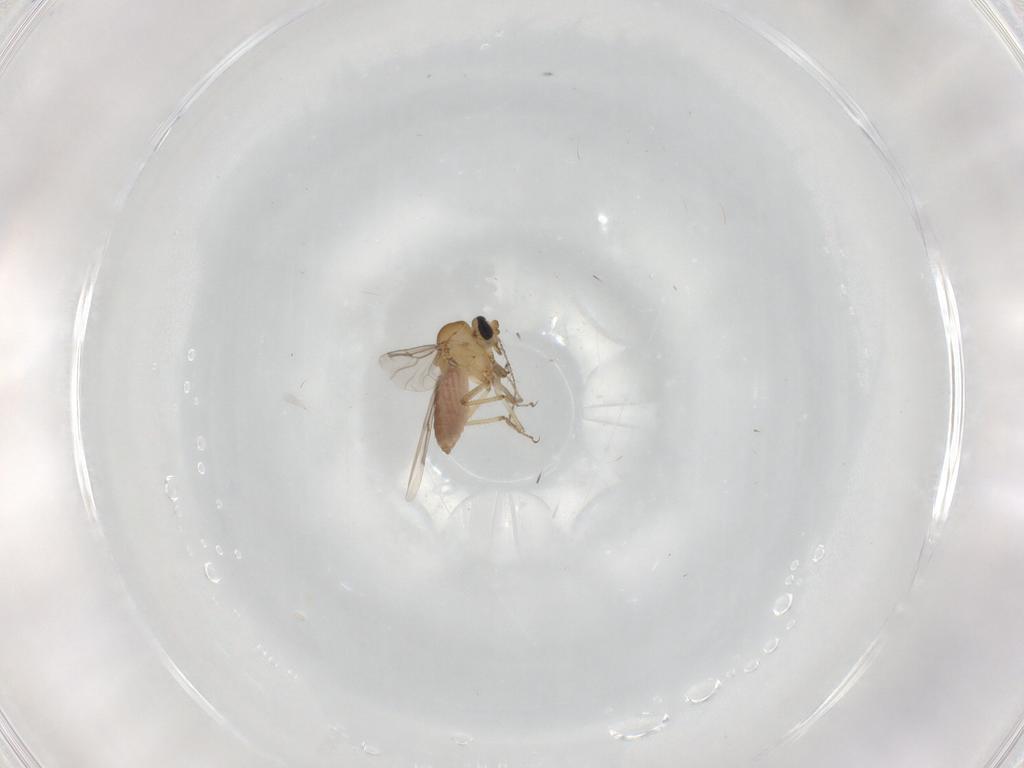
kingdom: Animalia
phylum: Arthropoda
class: Insecta
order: Diptera
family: Ceratopogonidae
